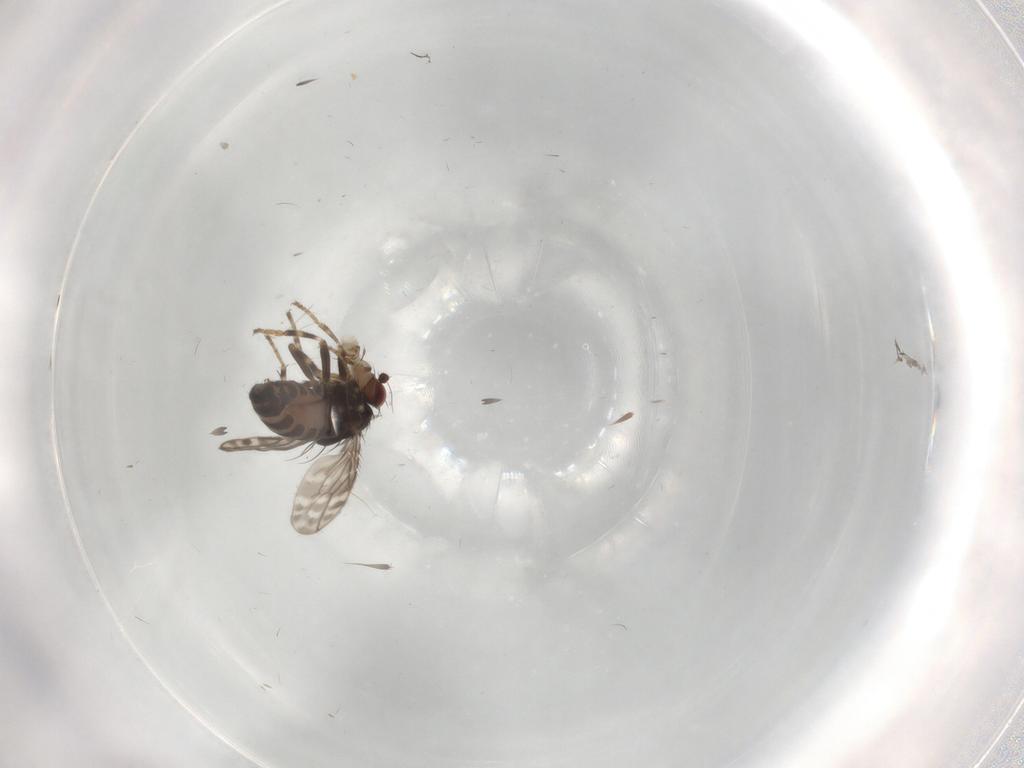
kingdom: Animalia
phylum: Arthropoda
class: Insecta
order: Diptera
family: Sphaeroceridae
